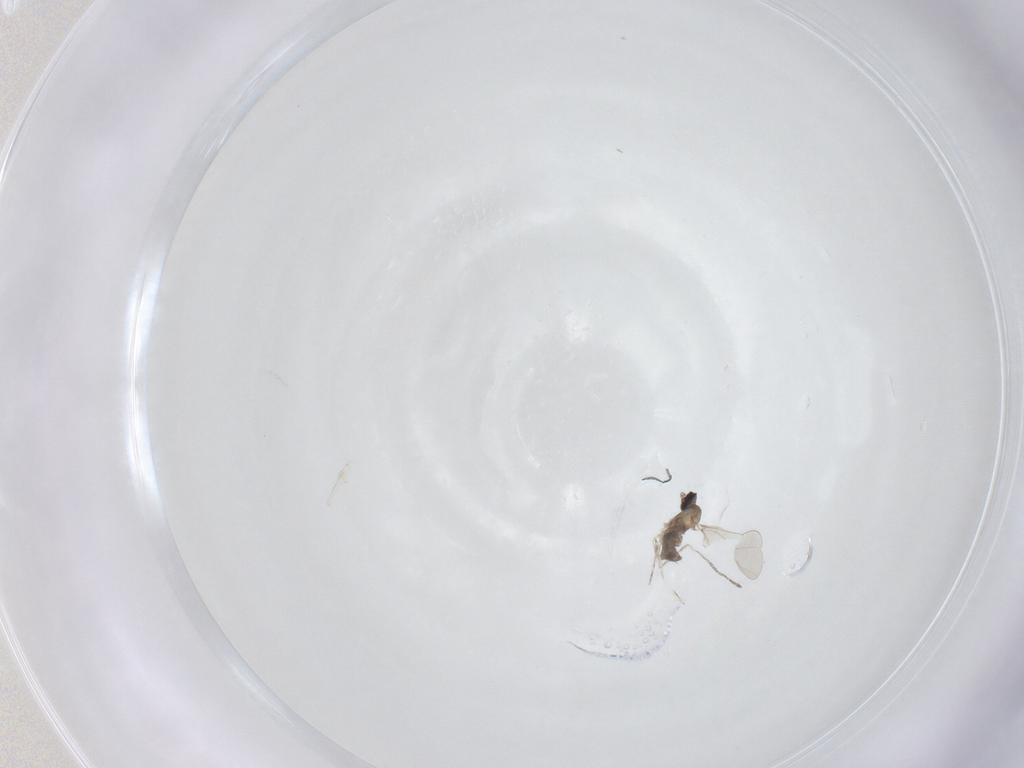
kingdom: Animalia
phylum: Arthropoda
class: Insecta
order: Diptera
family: Cecidomyiidae
